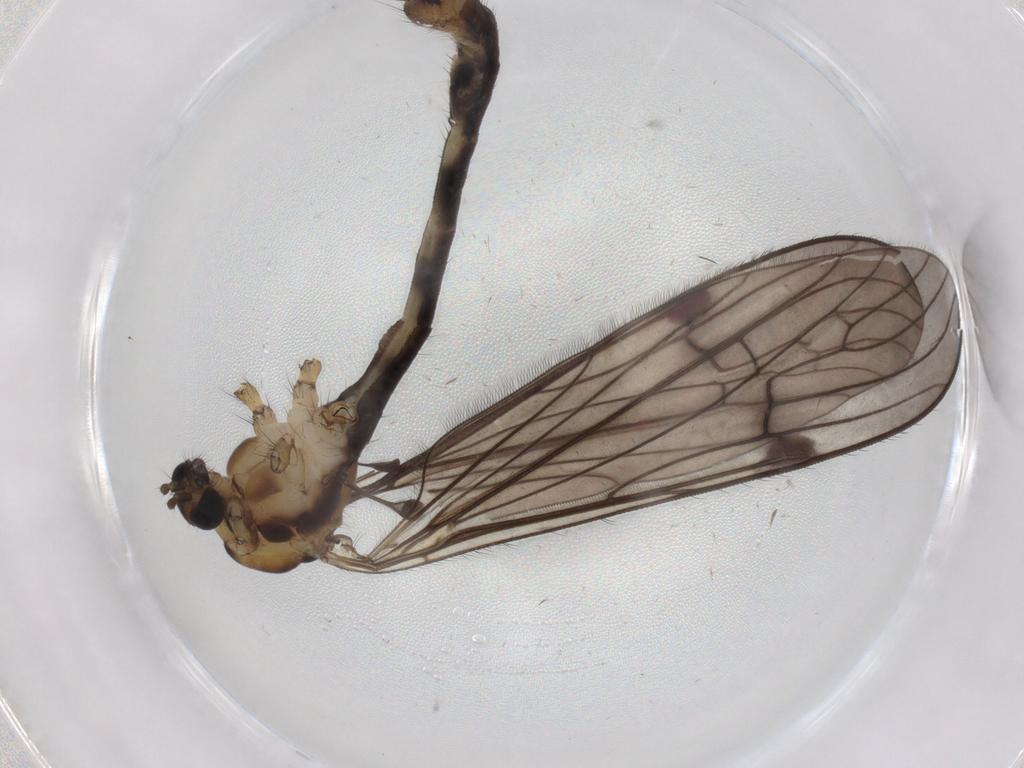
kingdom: Animalia
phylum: Arthropoda
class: Insecta
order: Diptera
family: Limoniidae
